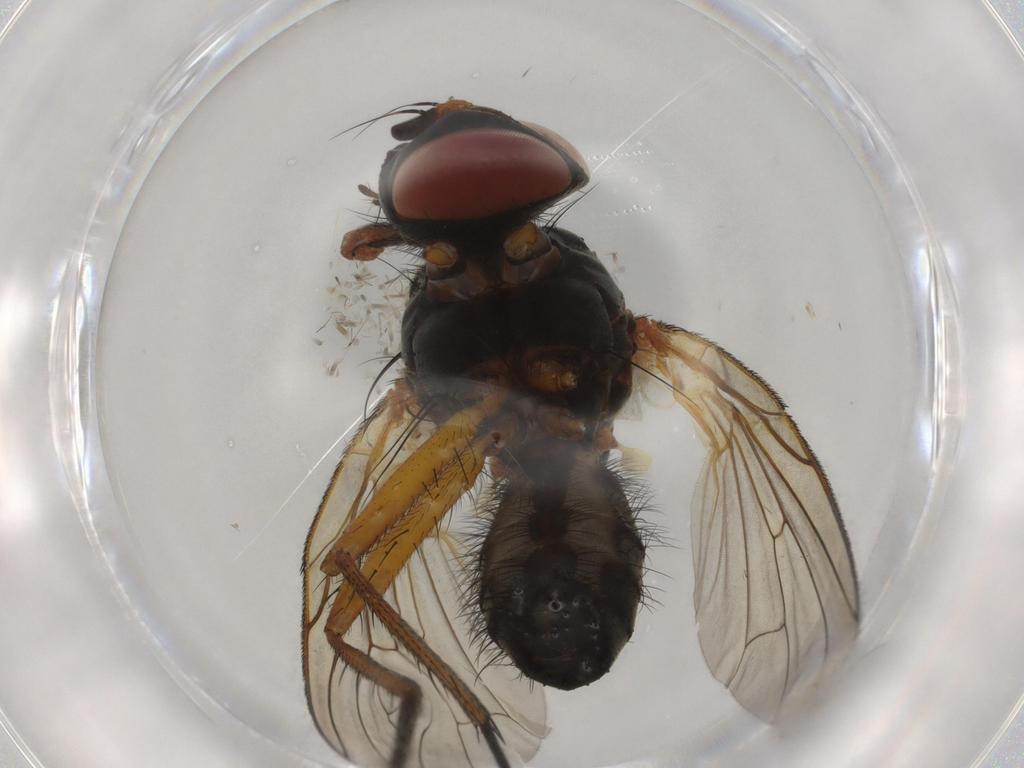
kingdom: Animalia
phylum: Arthropoda
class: Insecta
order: Diptera
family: Anthomyiidae
